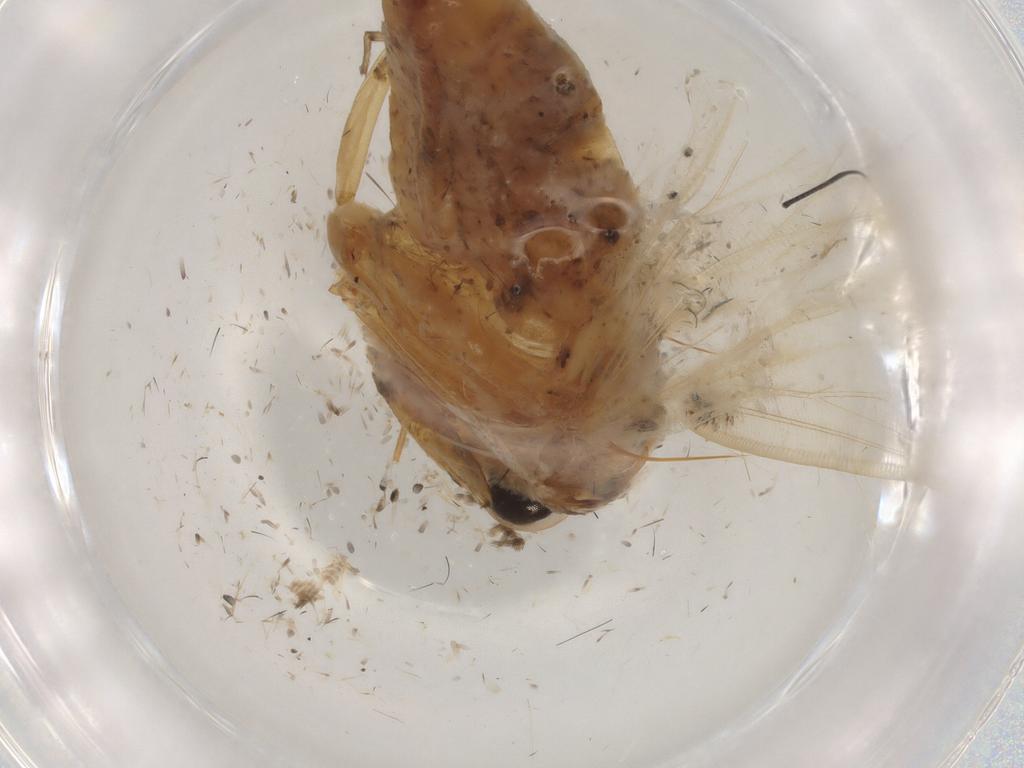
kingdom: Animalia
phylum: Arthropoda
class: Insecta
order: Lepidoptera
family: Noctuidae
